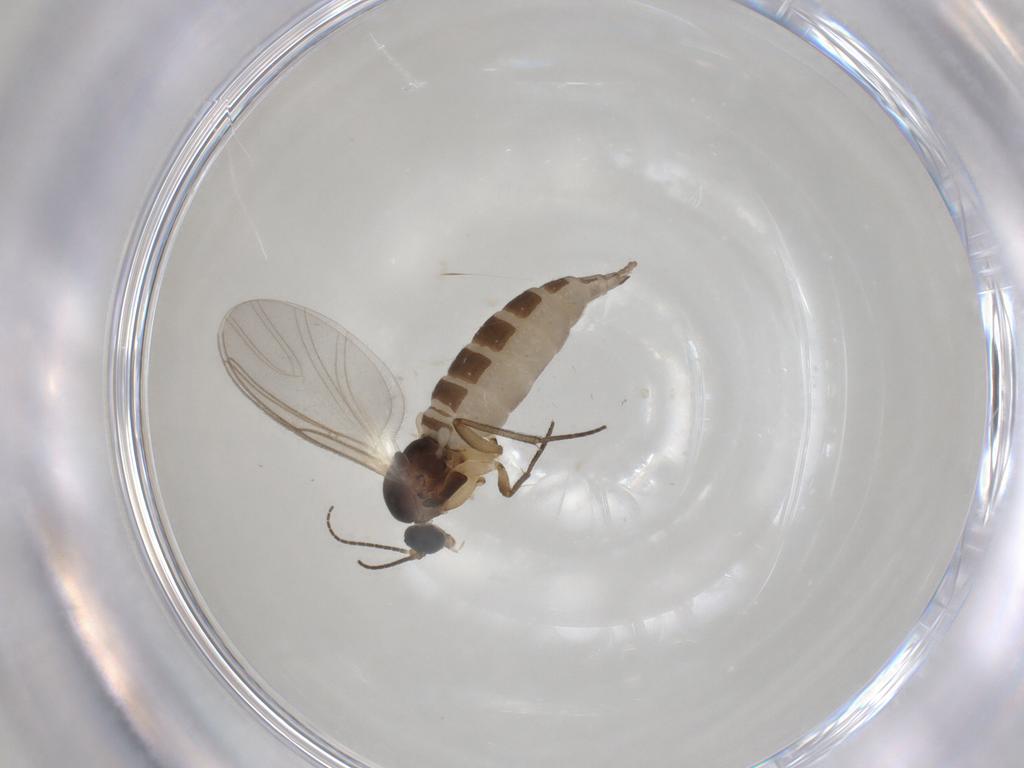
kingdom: Animalia
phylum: Arthropoda
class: Insecta
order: Diptera
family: Sciaridae
